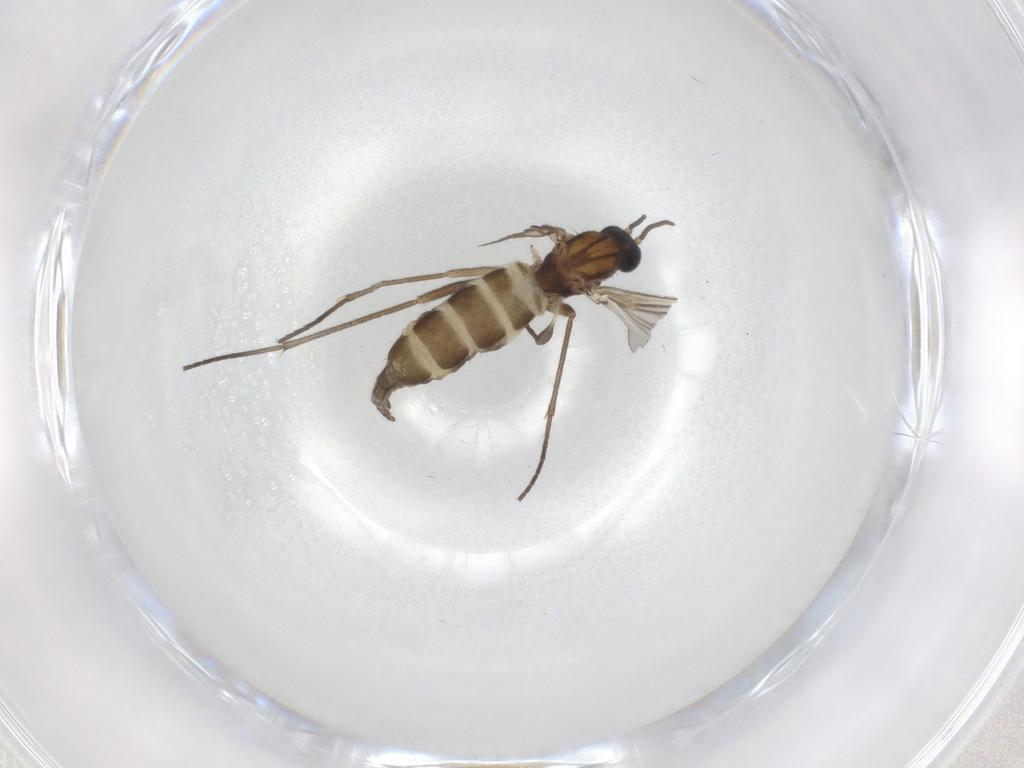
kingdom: Animalia
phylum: Arthropoda
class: Insecta
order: Diptera
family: Sciaridae
